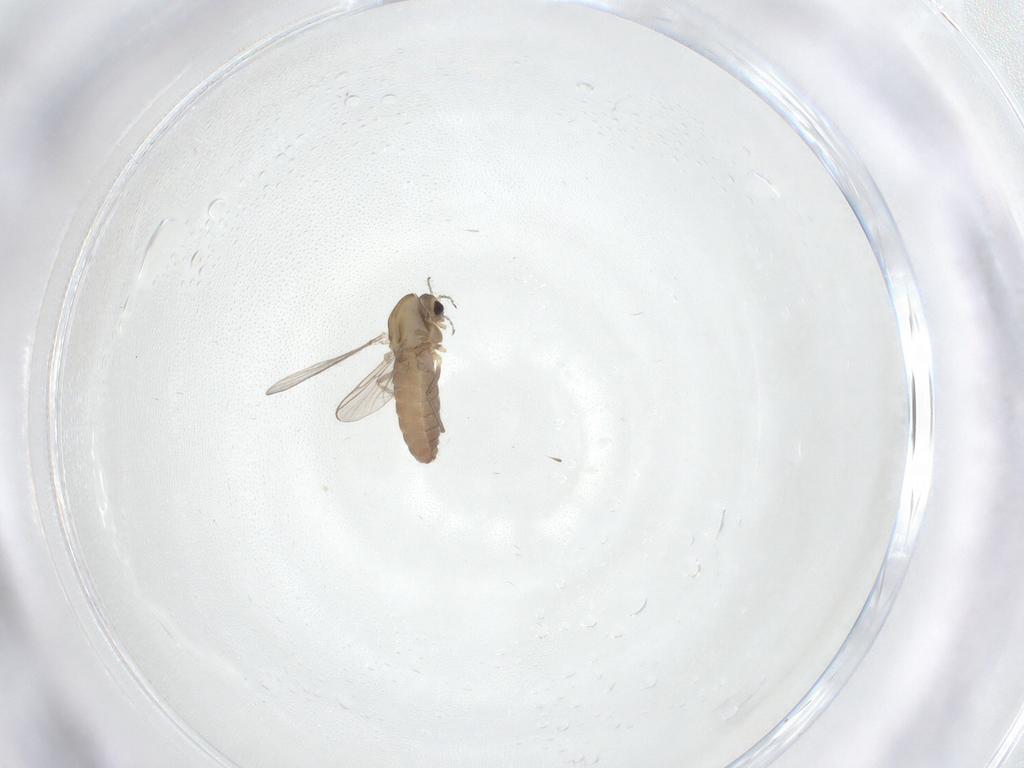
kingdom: Animalia
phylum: Arthropoda
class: Insecta
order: Diptera
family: Chironomidae
